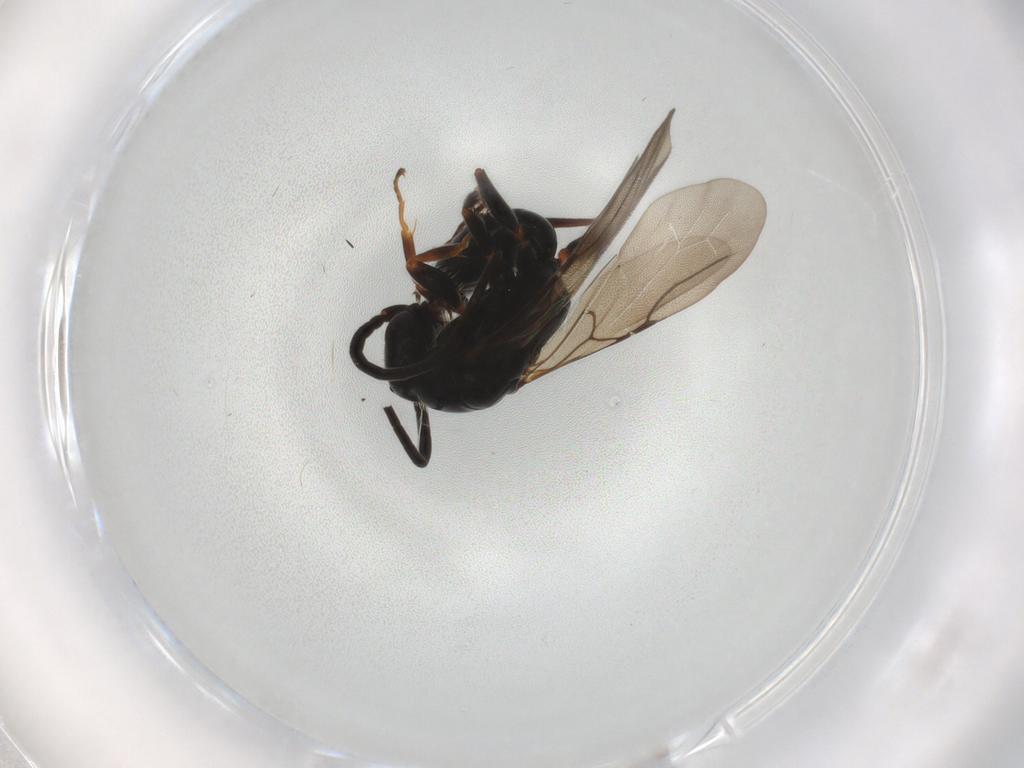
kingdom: Animalia
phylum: Arthropoda
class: Insecta
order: Hymenoptera
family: Bethylidae
